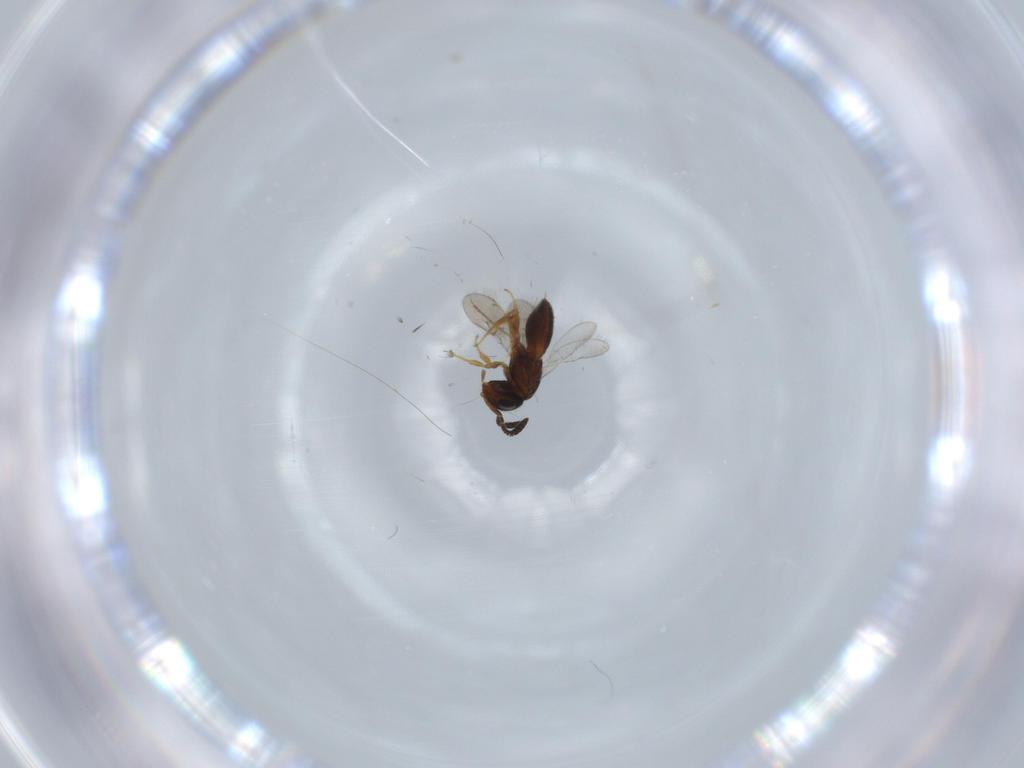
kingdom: Animalia
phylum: Arthropoda
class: Insecta
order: Hymenoptera
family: Scelionidae
